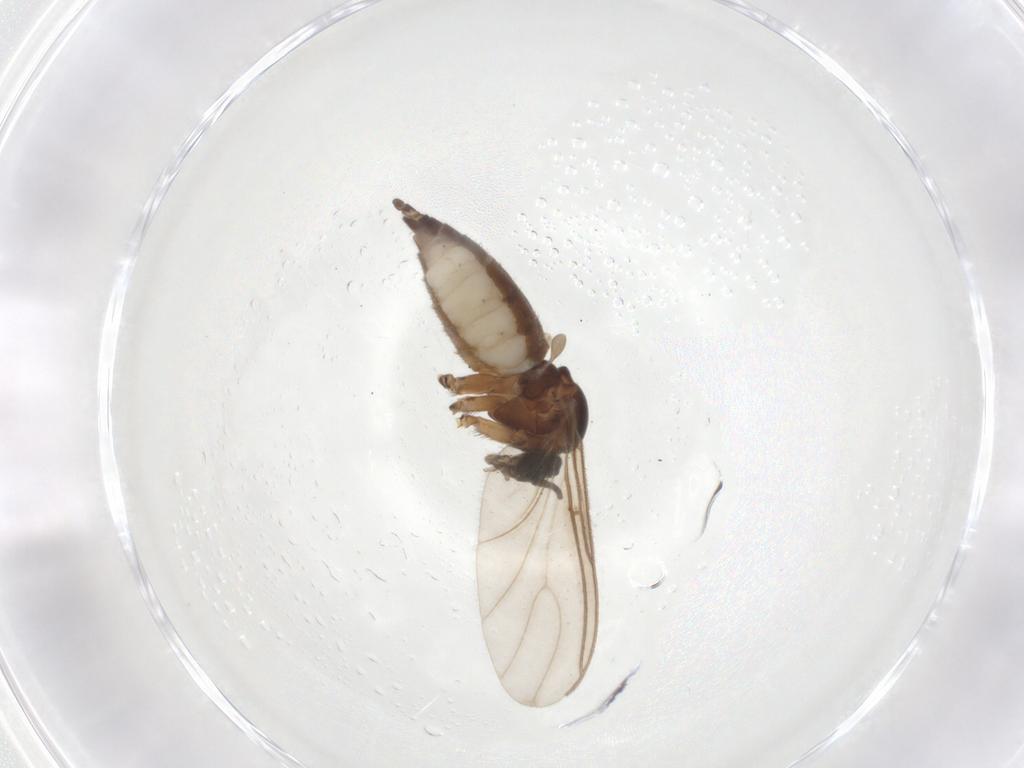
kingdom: Animalia
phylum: Arthropoda
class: Insecta
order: Diptera
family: Sciaridae
